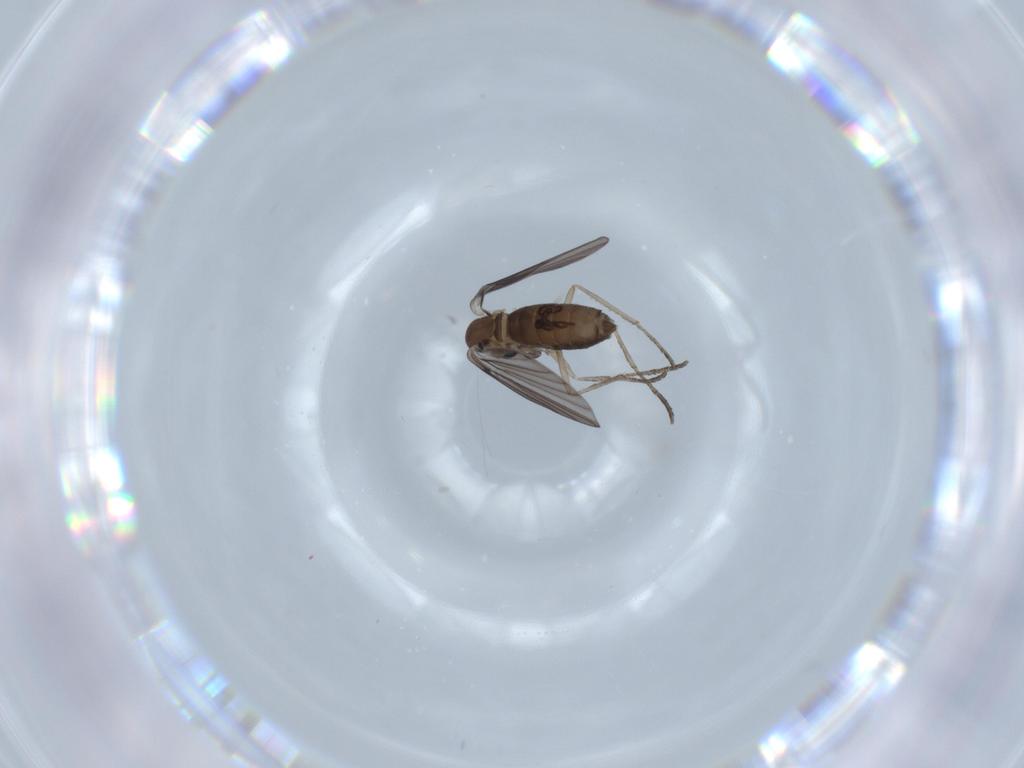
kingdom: Animalia
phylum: Arthropoda
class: Insecta
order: Diptera
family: Psychodidae
